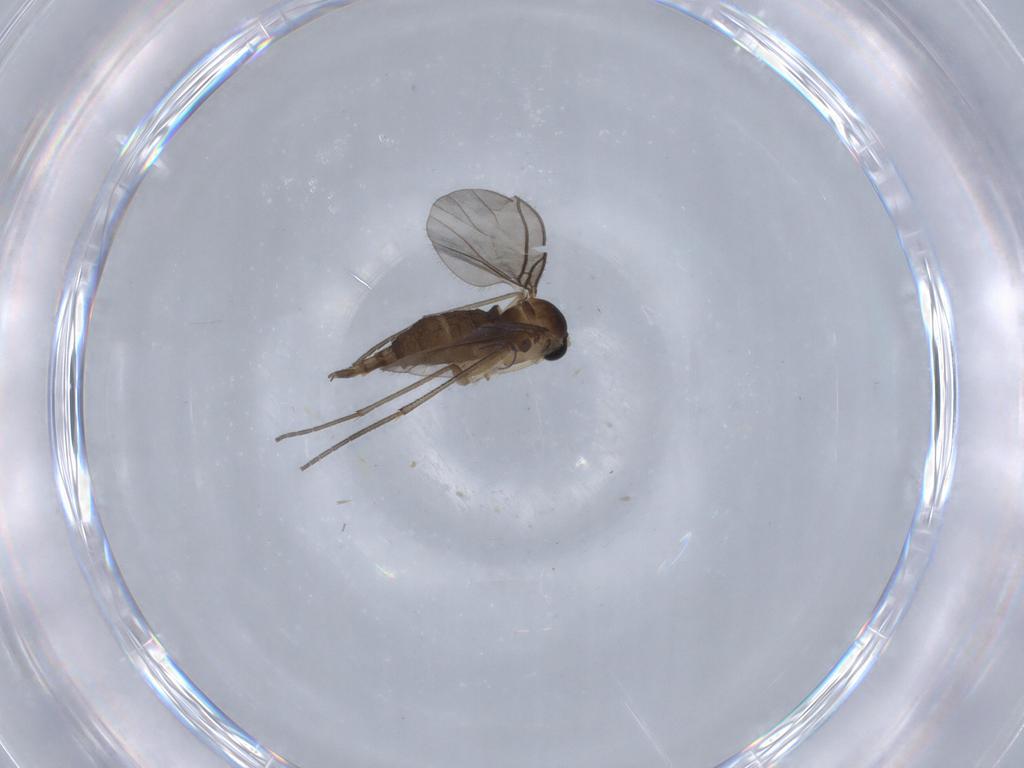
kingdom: Animalia
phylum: Arthropoda
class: Insecta
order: Diptera
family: Sciaridae
